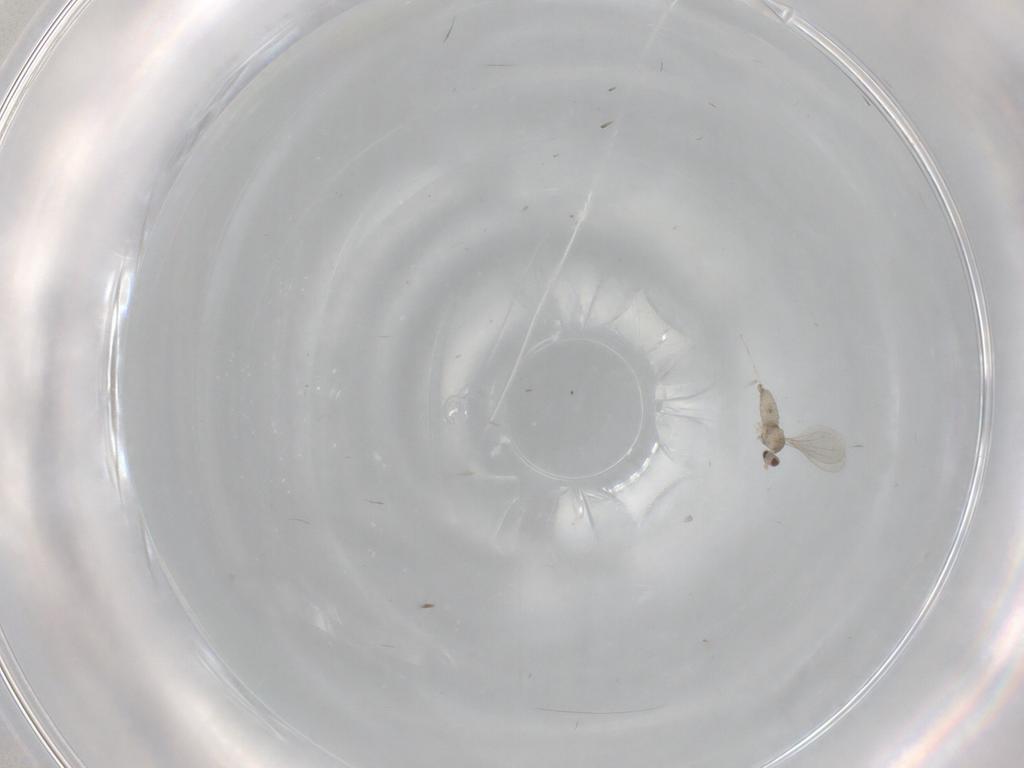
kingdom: Animalia
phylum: Arthropoda
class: Insecta
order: Diptera
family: Cecidomyiidae
